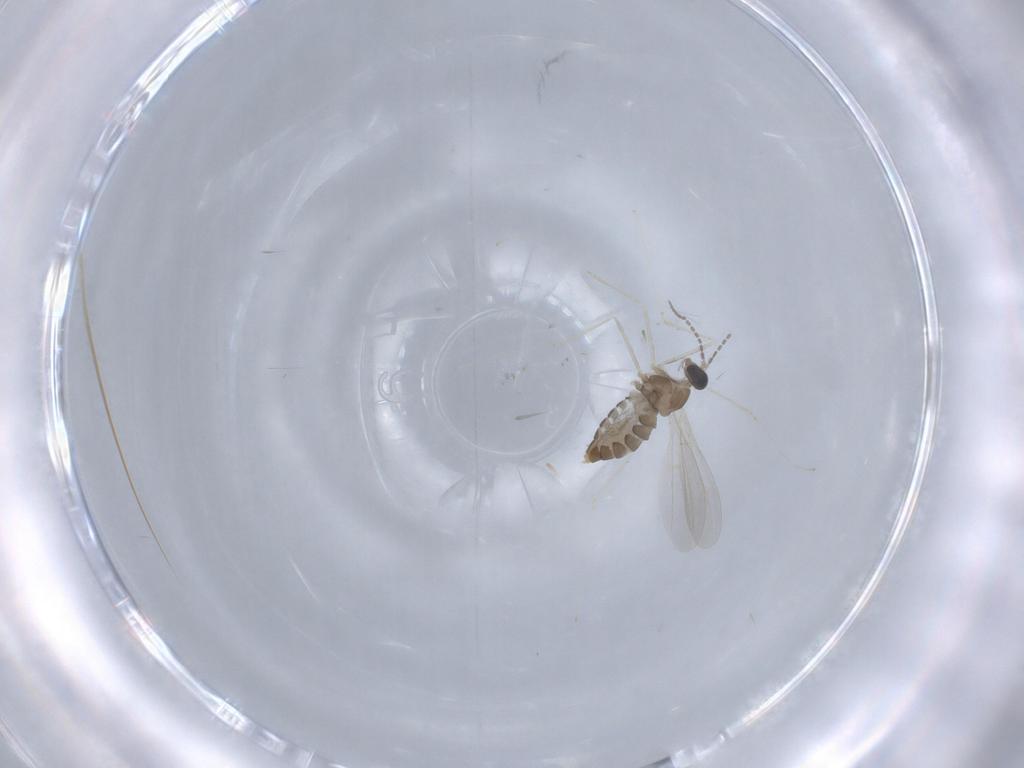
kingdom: Animalia
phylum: Arthropoda
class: Insecta
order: Diptera
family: Cecidomyiidae
